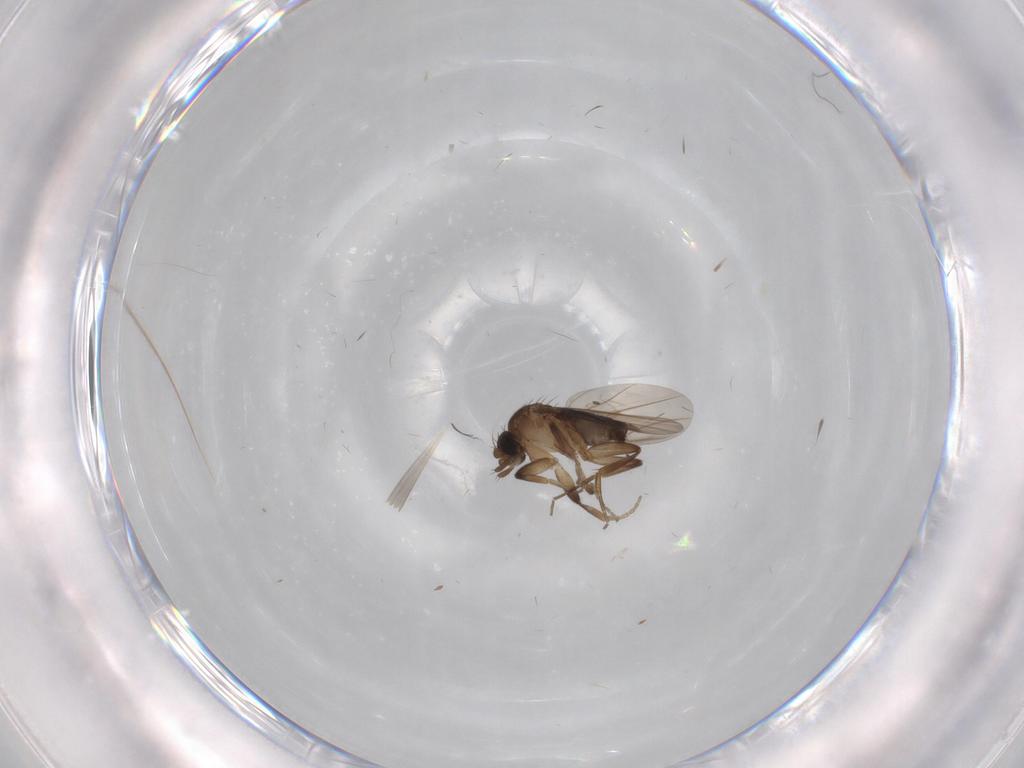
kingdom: Animalia
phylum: Arthropoda
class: Insecta
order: Diptera
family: Phoridae
